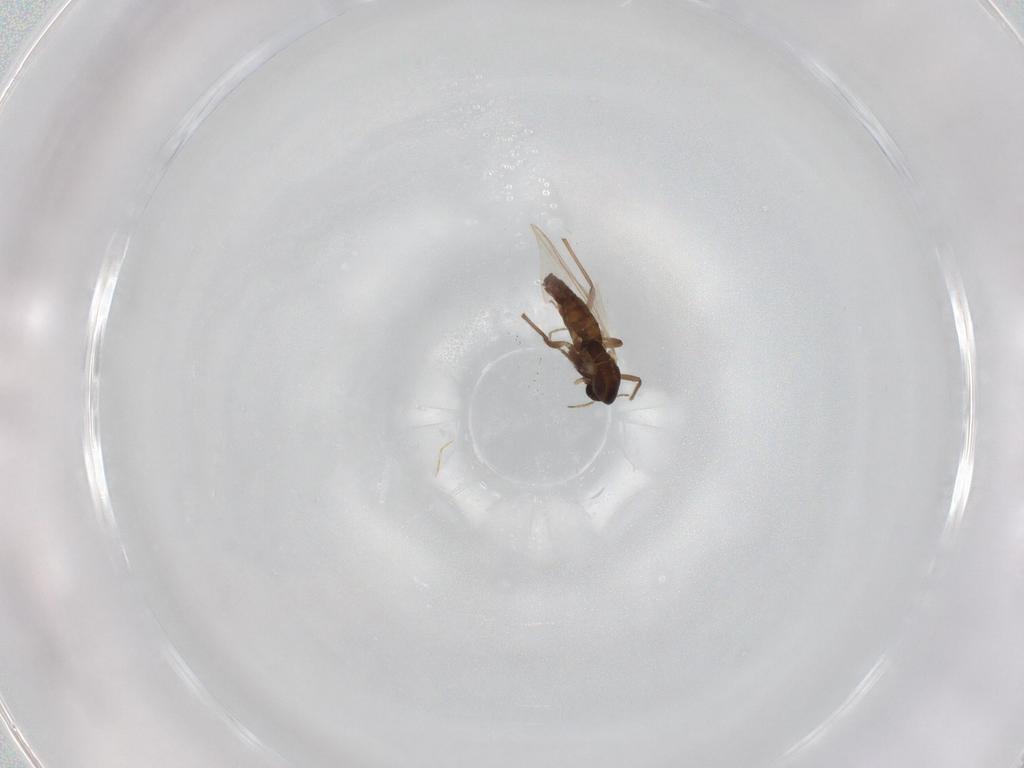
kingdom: Animalia
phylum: Arthropoda
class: Insecta
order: Diptera
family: Chironomidae
